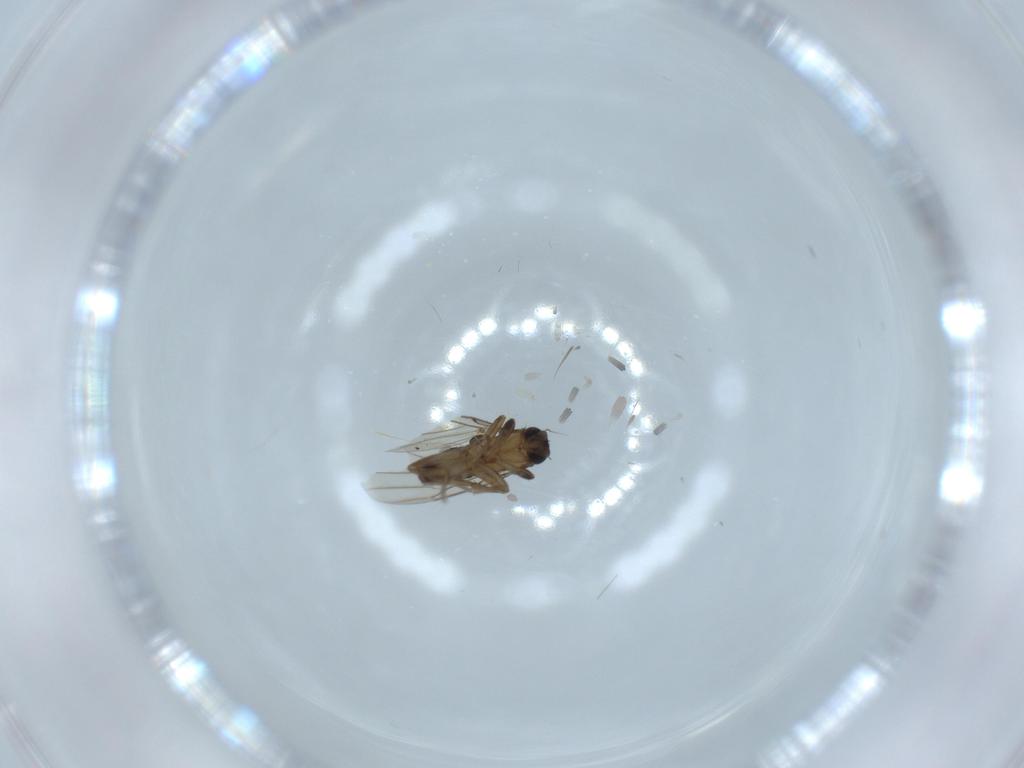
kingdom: Animalia
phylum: Arthropoda
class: Insecta
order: Diptera
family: Phoridae
